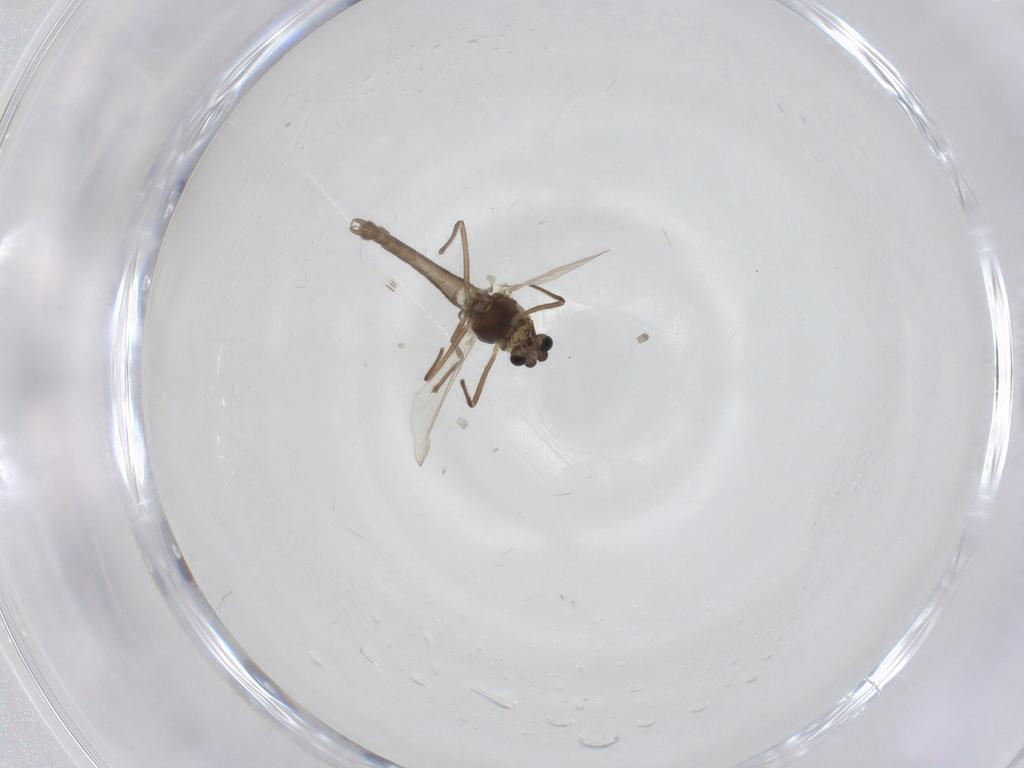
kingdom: Animalia
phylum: Arthropoda
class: Insecta
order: Diptera
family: Chironomidae
